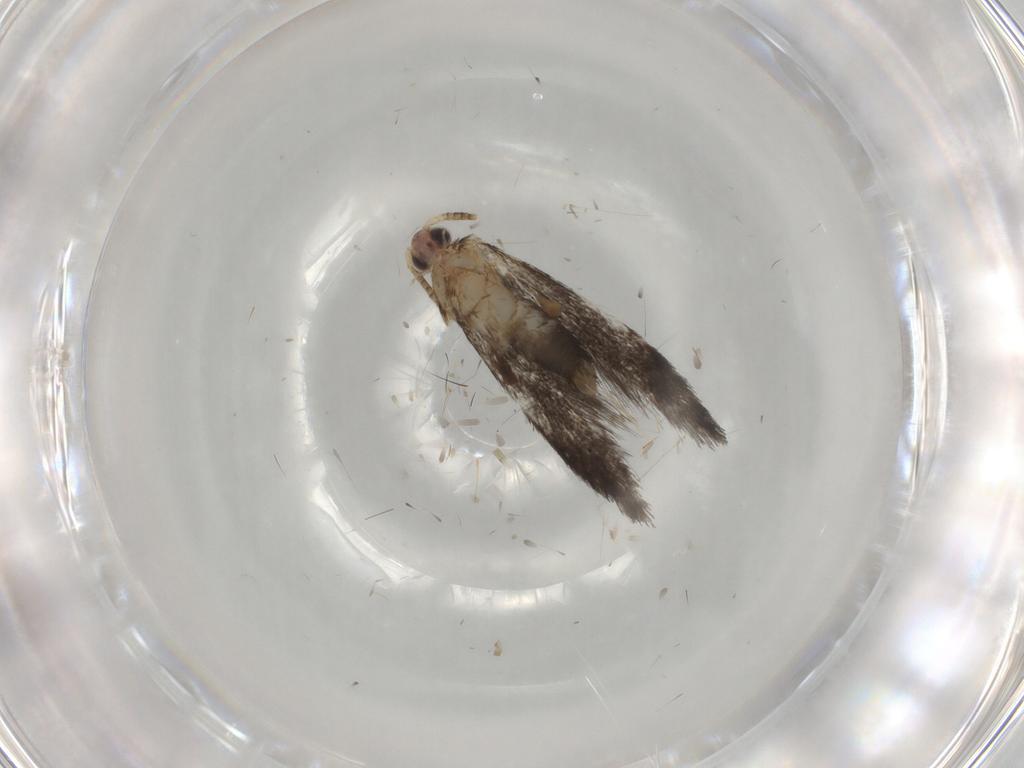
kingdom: Animalia
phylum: Arthropoda
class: Insecta
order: Lepidoptera
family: Tineidae
